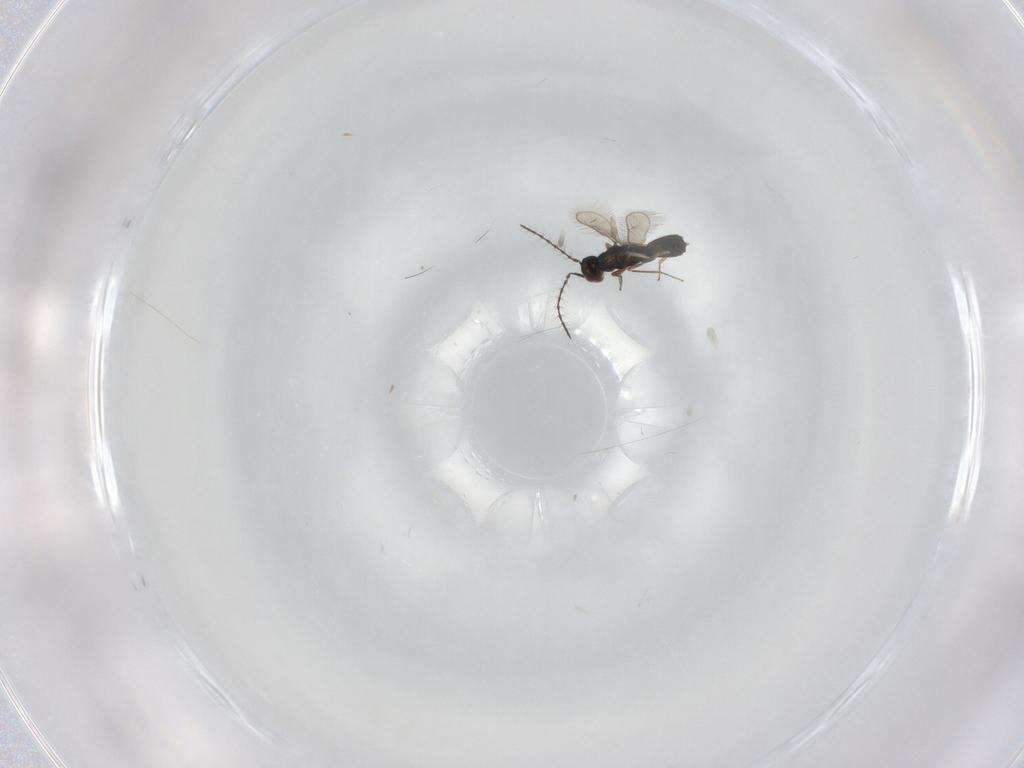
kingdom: Animalia
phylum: Arthropoda
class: Insecta
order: Hymenoptera
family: Pteromalidae
